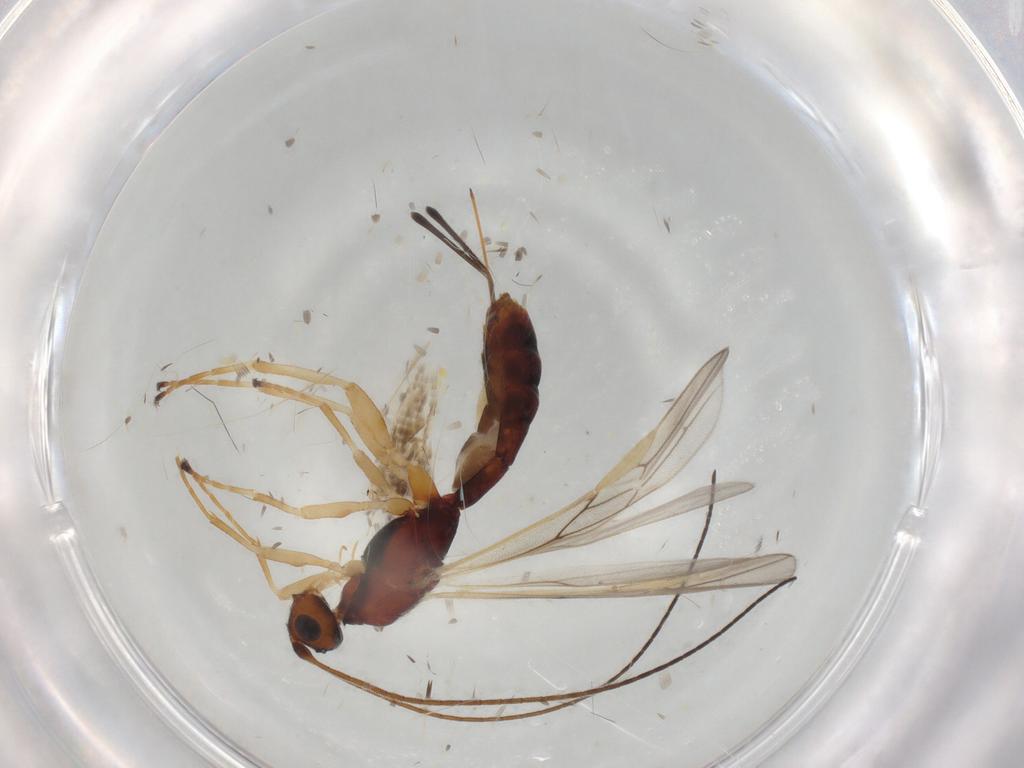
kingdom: Animalia
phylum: Arthropoda
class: Insecta
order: Hymenoptera
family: Braconidae
